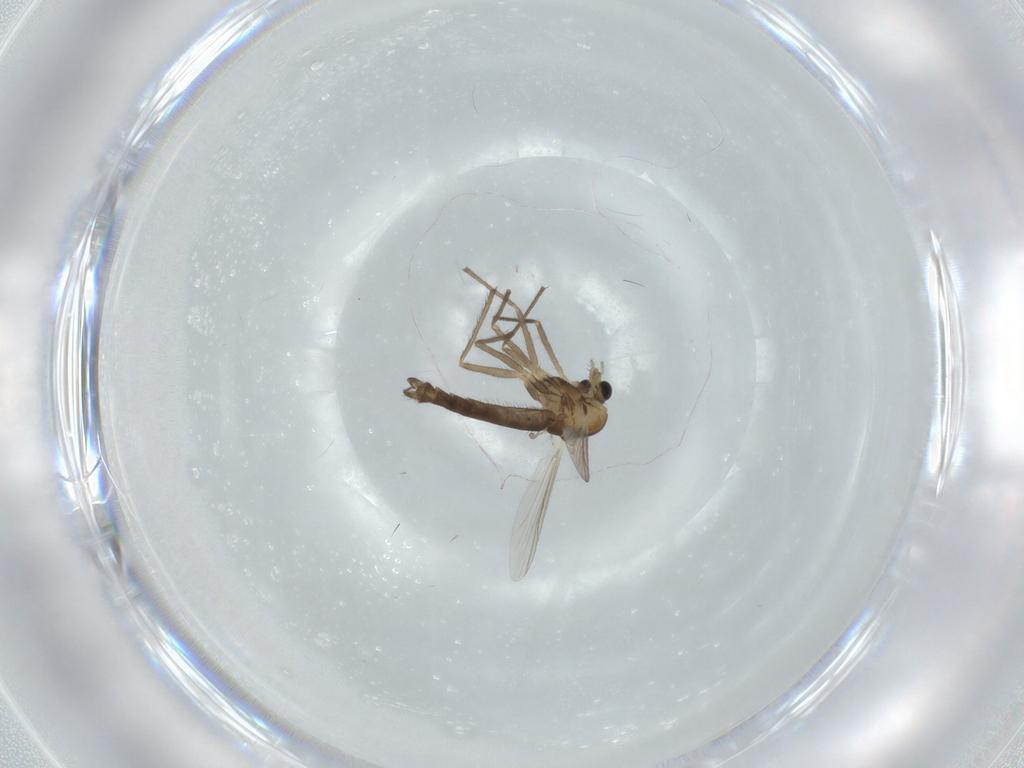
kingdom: Animalia
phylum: Arthropoda
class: Insecta
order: Diptera
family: Chironomidae
